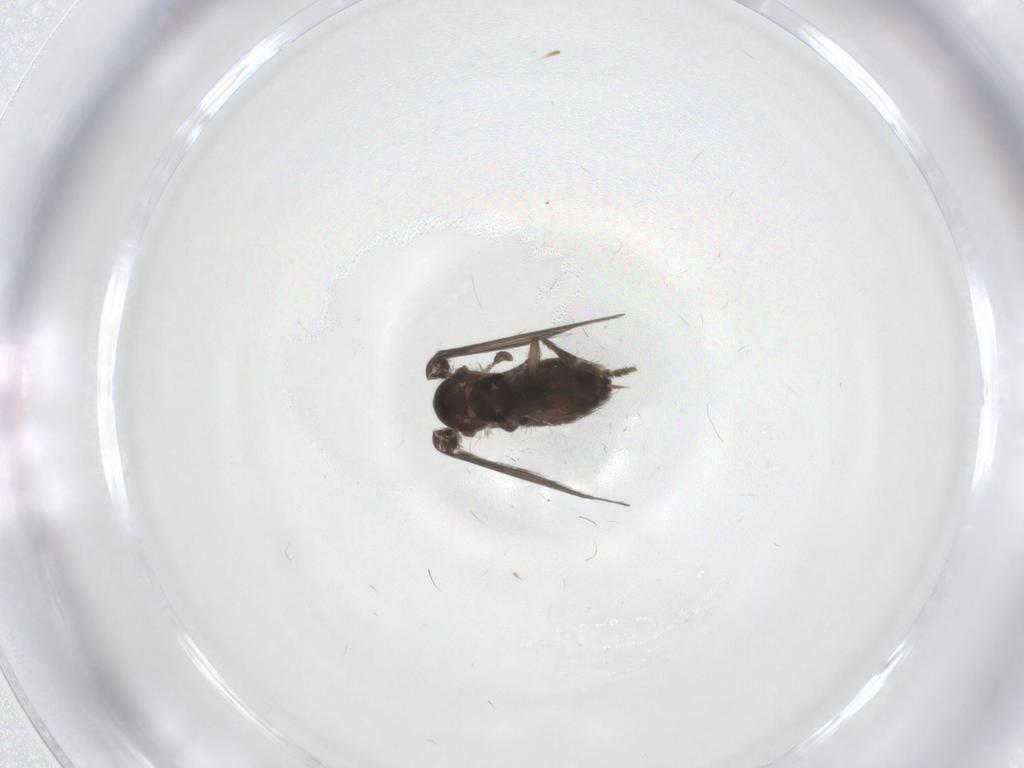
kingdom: Animalia
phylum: Arthropoda
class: Insecta
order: Diptera
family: Psychodidae
